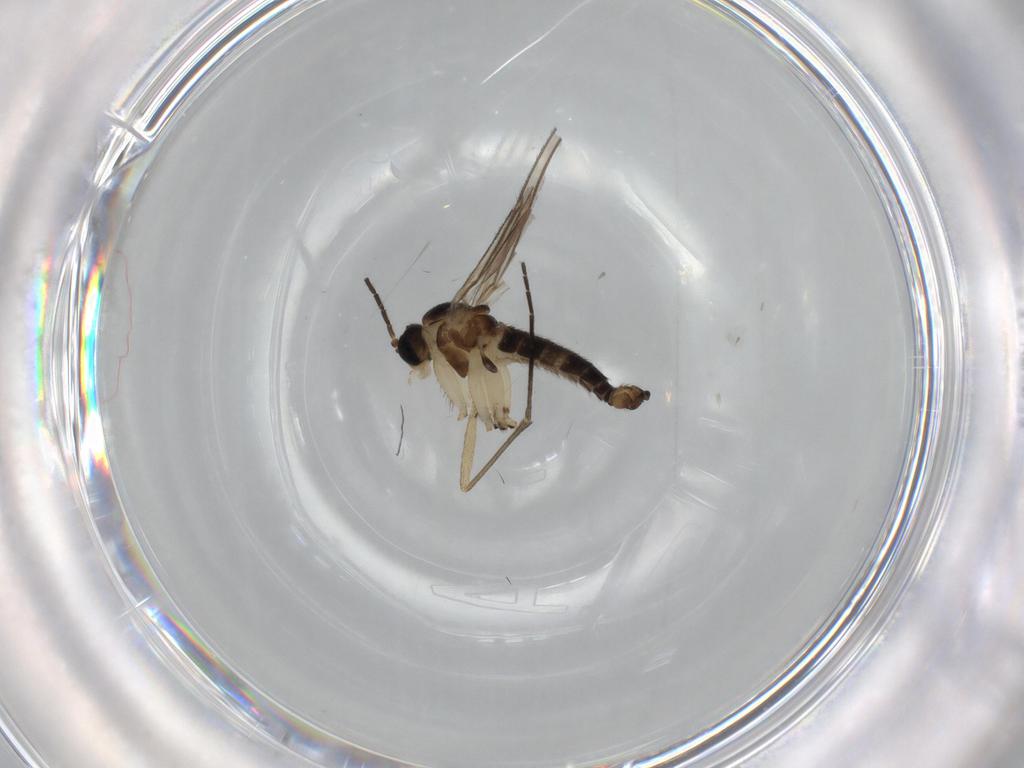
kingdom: Animalia
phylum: Arthropoda
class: Insecta
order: Diptera
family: Sciaridae
